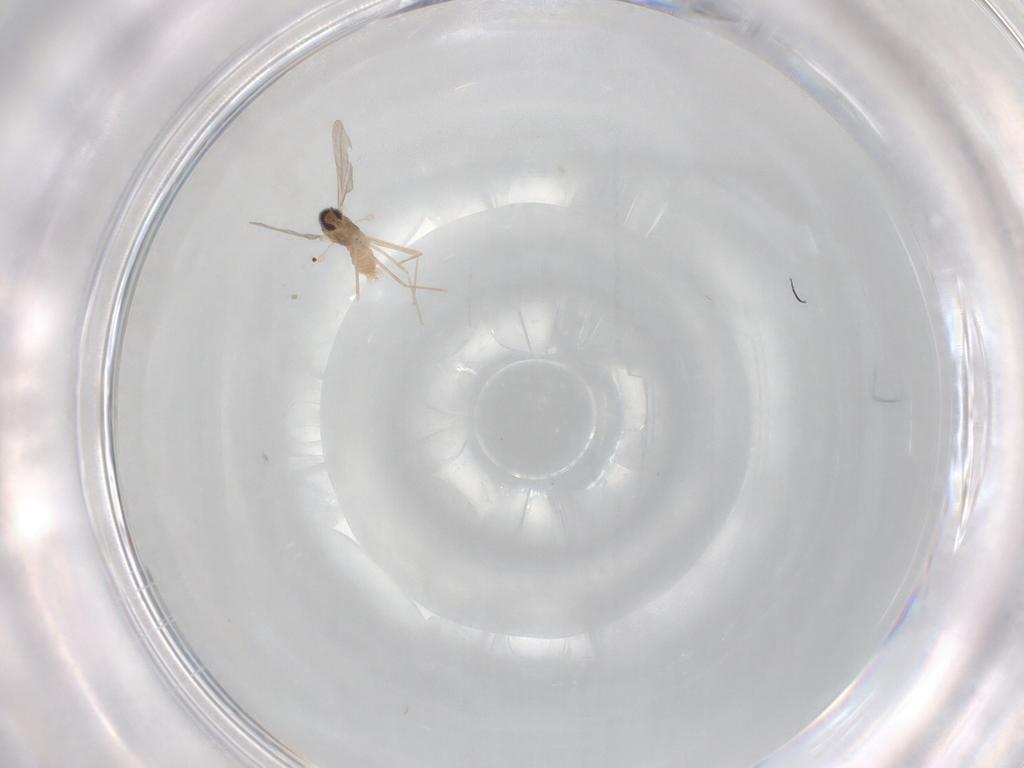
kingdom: Animalia
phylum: Arthropoda
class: Insecta
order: Diptera
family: Cecidomyiidae
